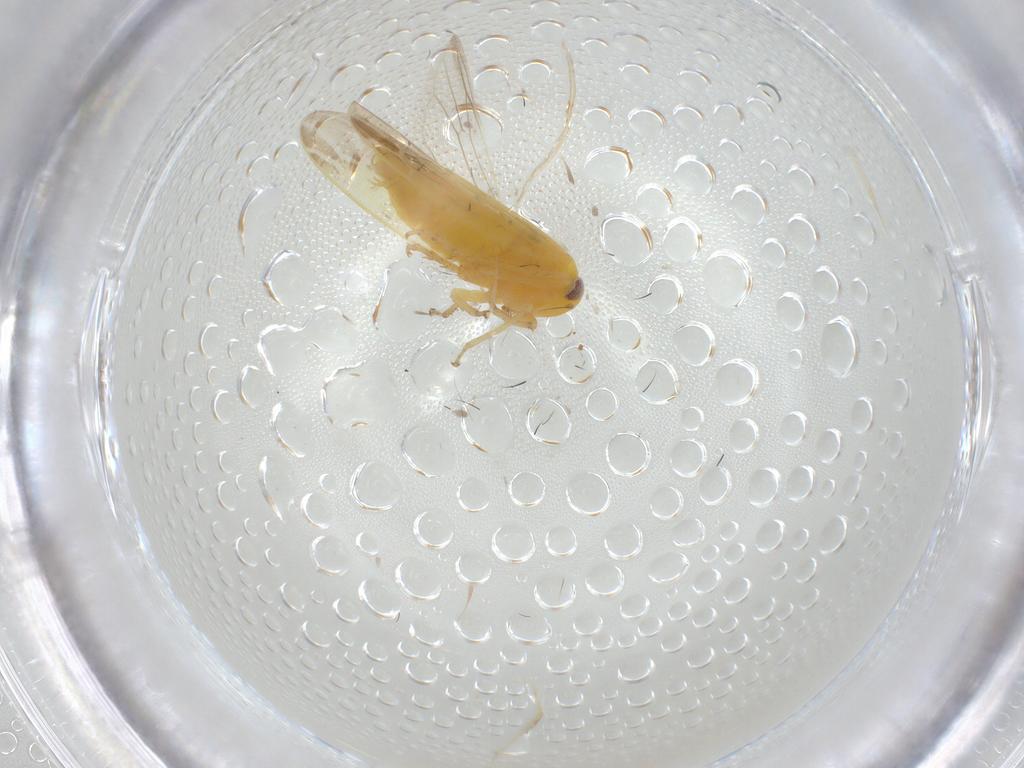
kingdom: Animalia
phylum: Arthropoda
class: Insecta
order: Hemiptera
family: Cicadellidae
